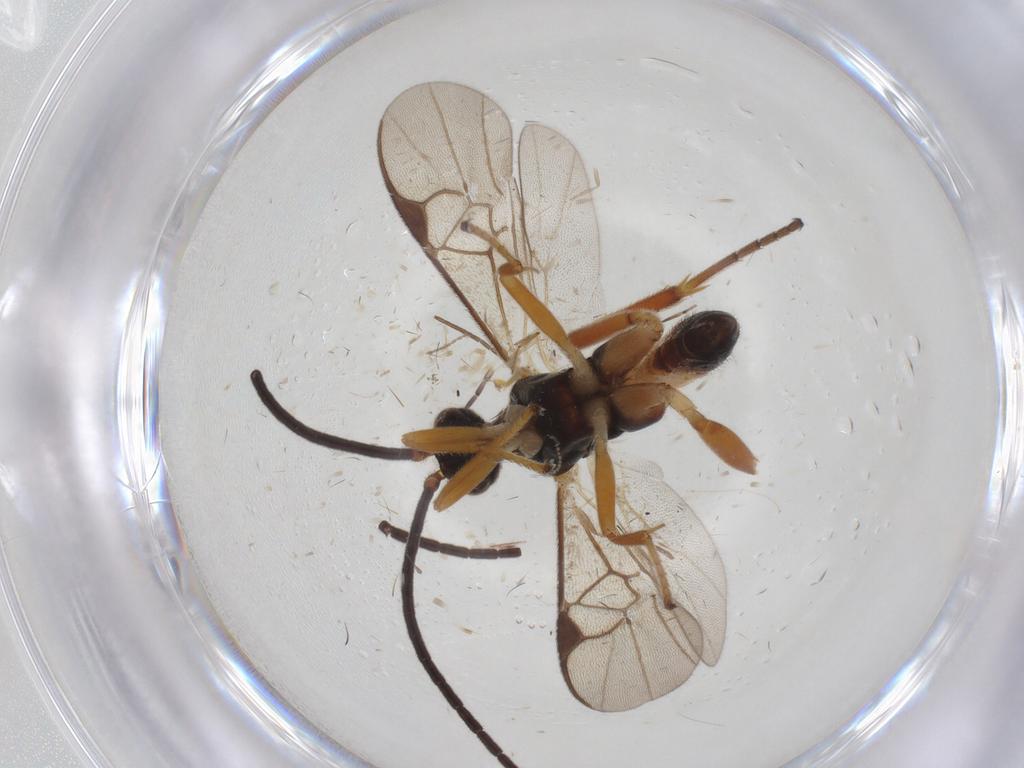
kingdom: Animalia
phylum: Arthropoda
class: Insecta
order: Hymenoptera
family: Braconidae
